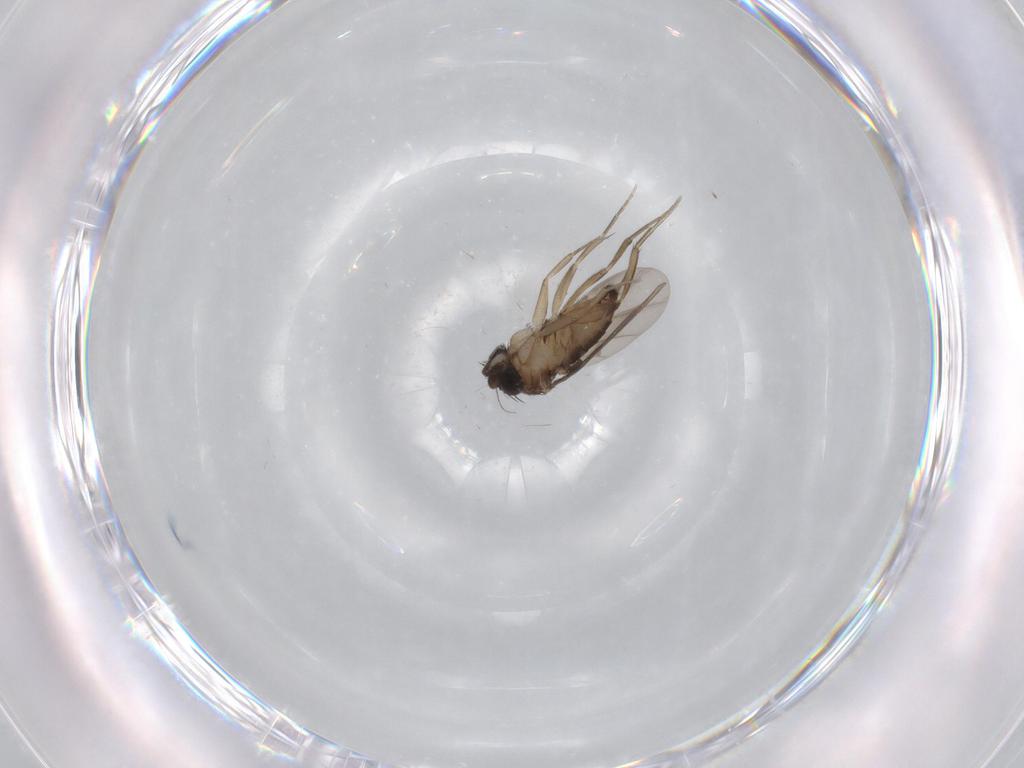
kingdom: Animalia
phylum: Arthropoda
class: Insecta
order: Diptera
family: Phoridae
